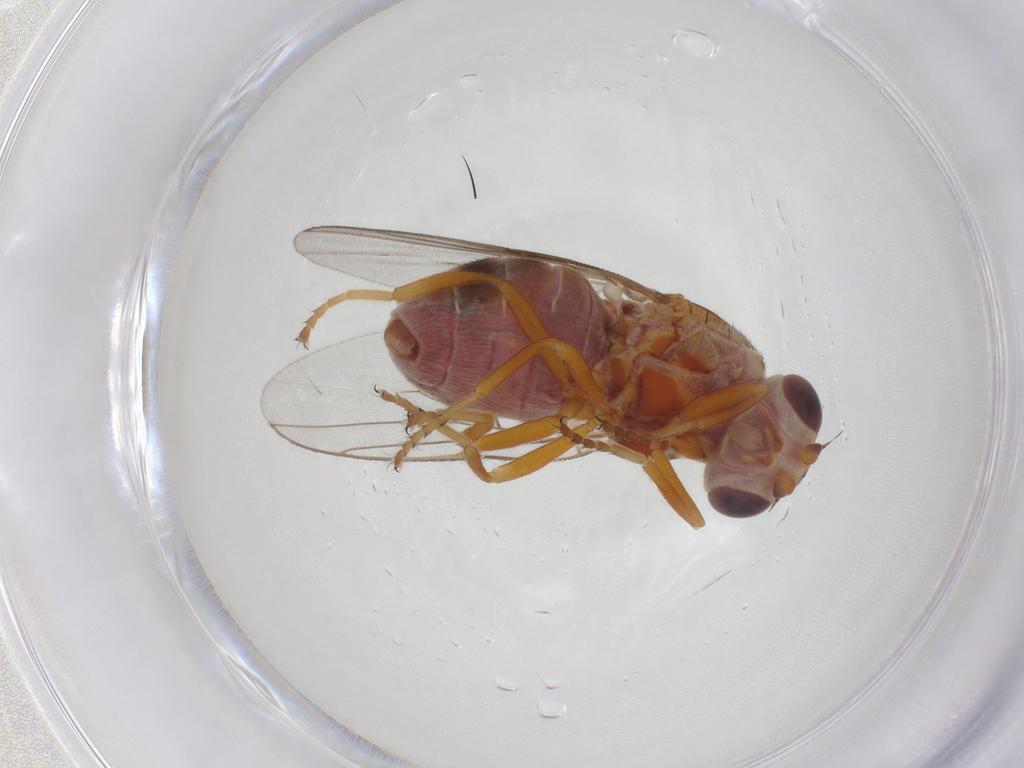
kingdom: Animalia
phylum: Arthropoda
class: Insecta
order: Diptera
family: Chloropidae
